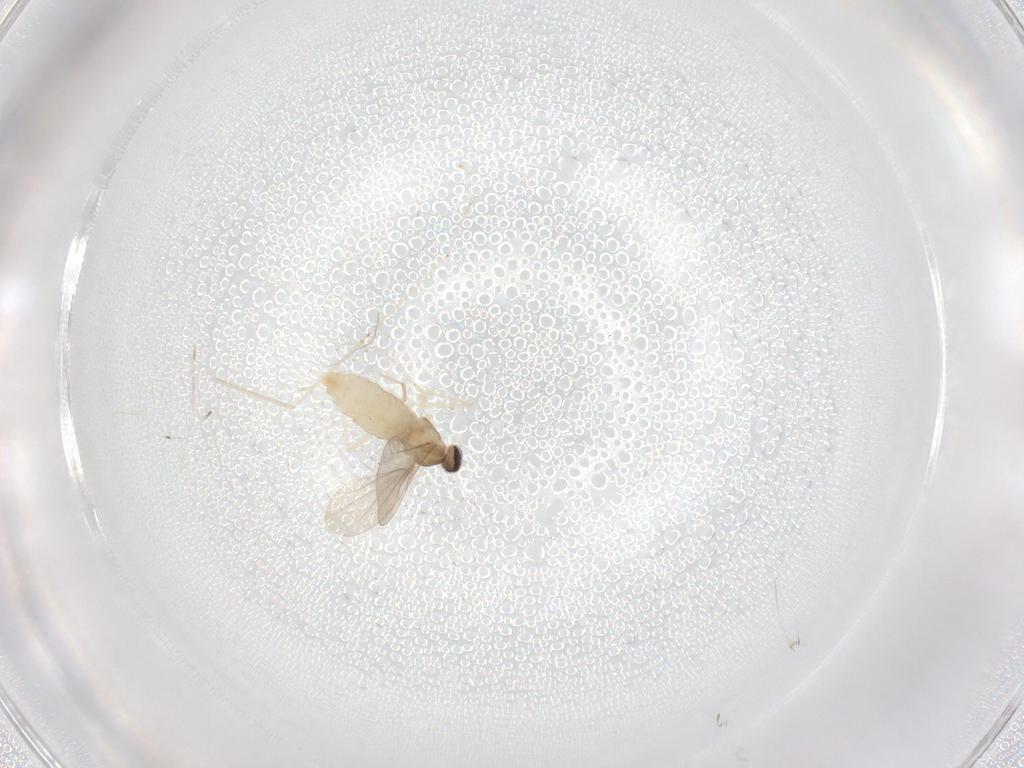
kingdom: Animalia
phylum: Arthropoda
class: Insecta
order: Diptera
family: Cecidomyiidae
